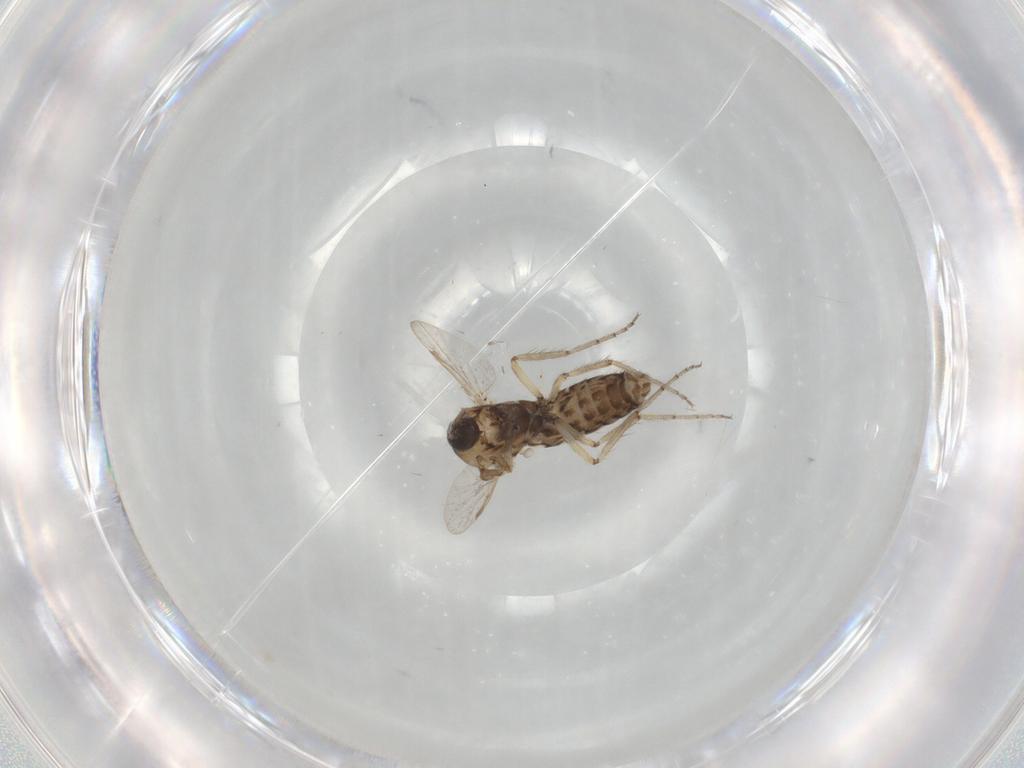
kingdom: Animalia
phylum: Arthropoda
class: Insecta
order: Diptera
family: Ceratopogonidae
